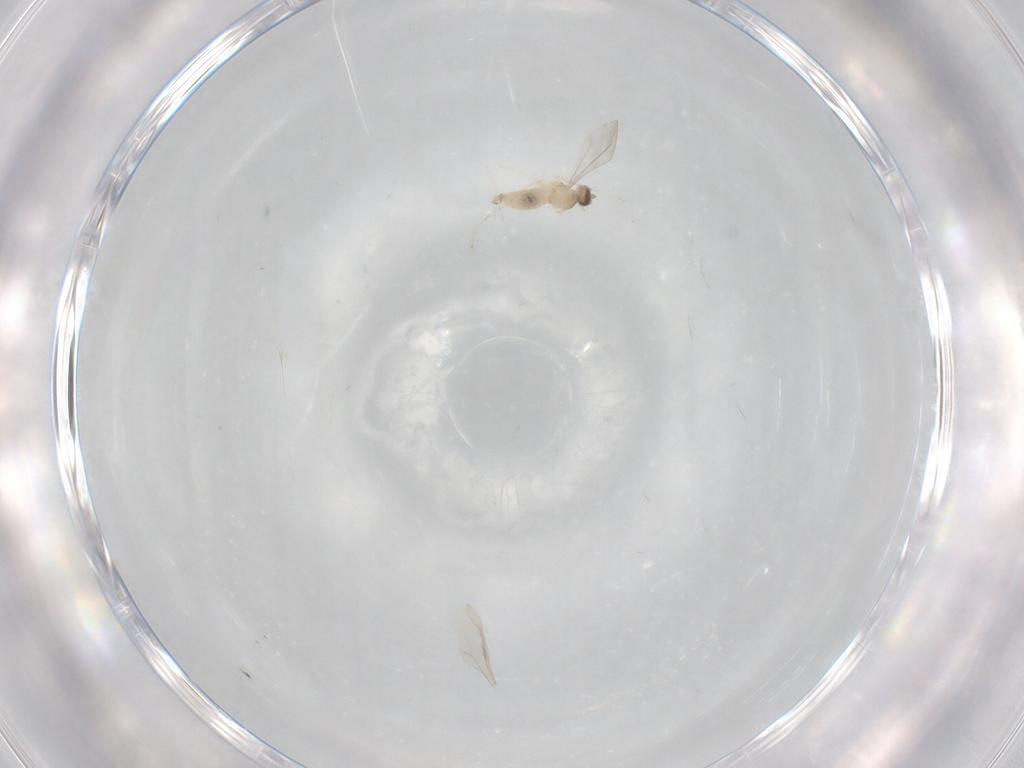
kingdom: Animalia
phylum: Arthropoda
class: Insecta
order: Diptera
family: Cecidomyiidae
